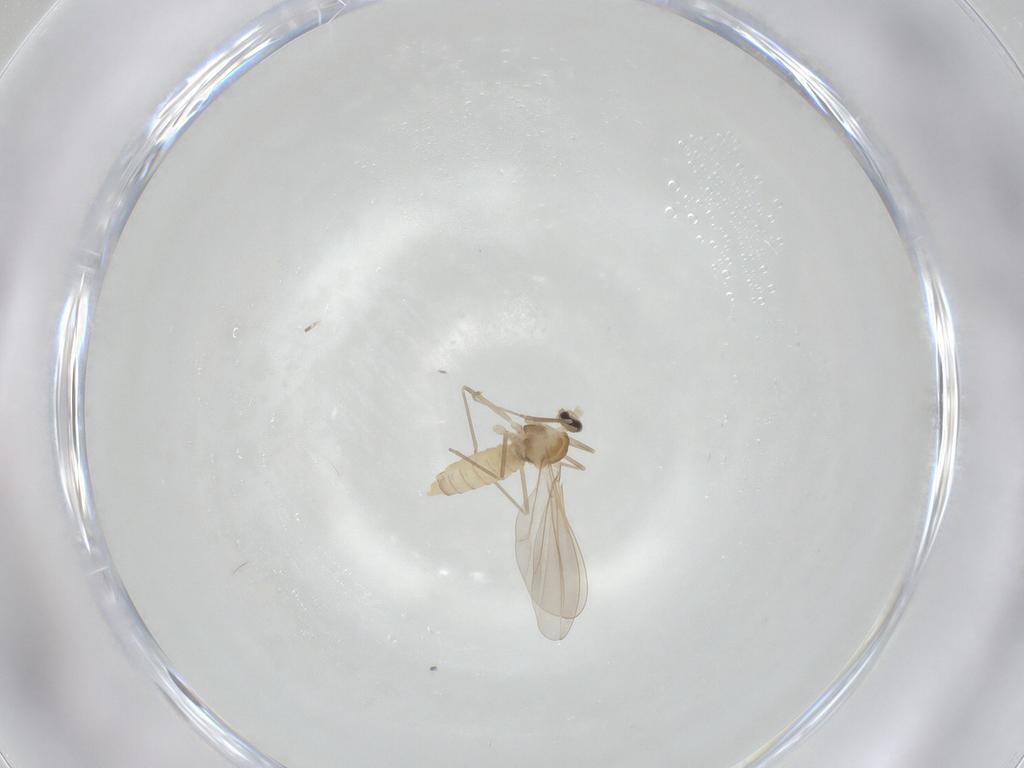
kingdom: Animalia
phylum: Arthropoda
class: Insecta
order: Diptera
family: Cecidomyiidae
